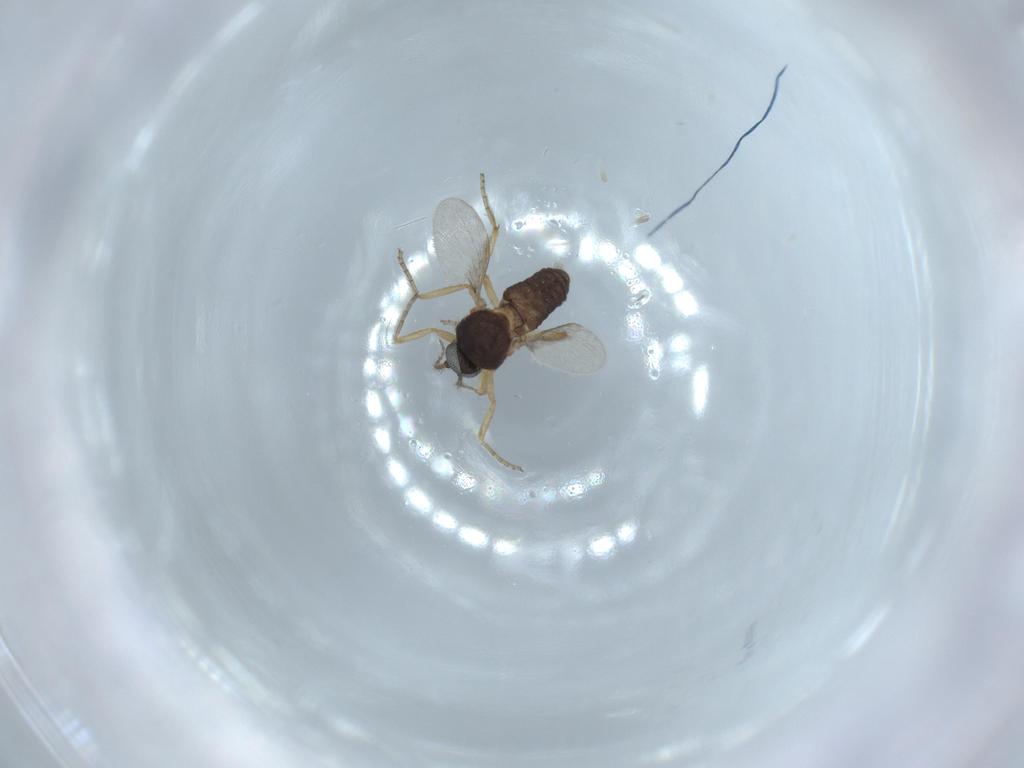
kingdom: Animalia
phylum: Arthropoda
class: Insecta
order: Diptera
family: Ceratopogonidae
